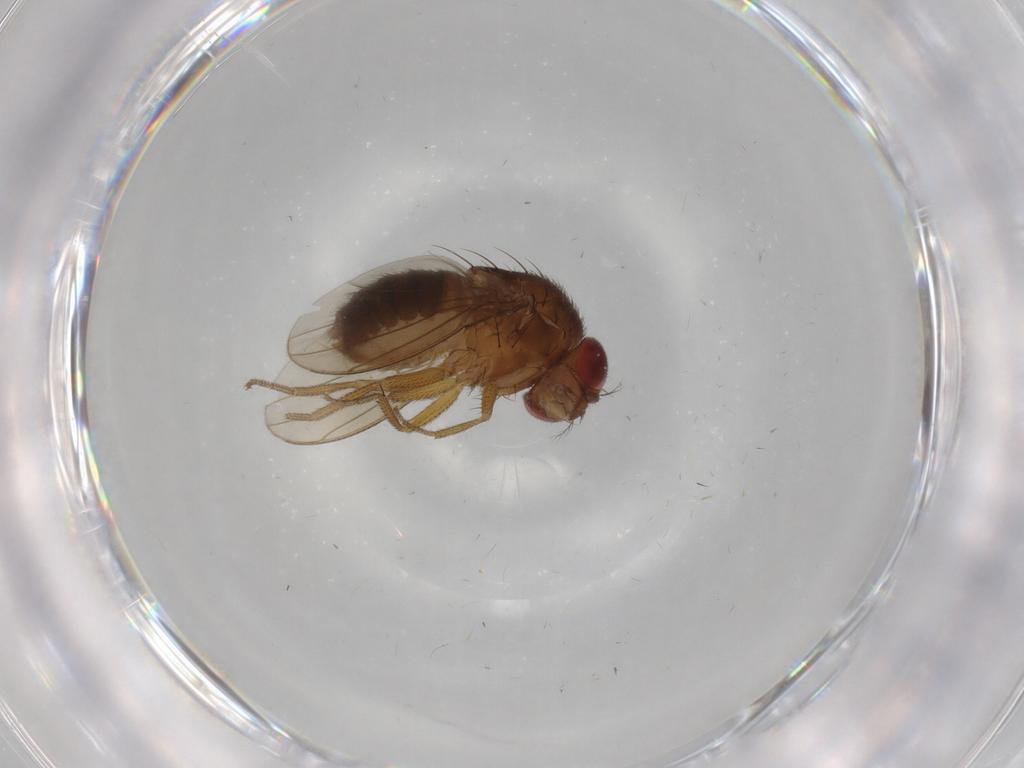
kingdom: Animalia
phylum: Arthropoda
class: Insecta
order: Diptera
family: Drosophilidae
